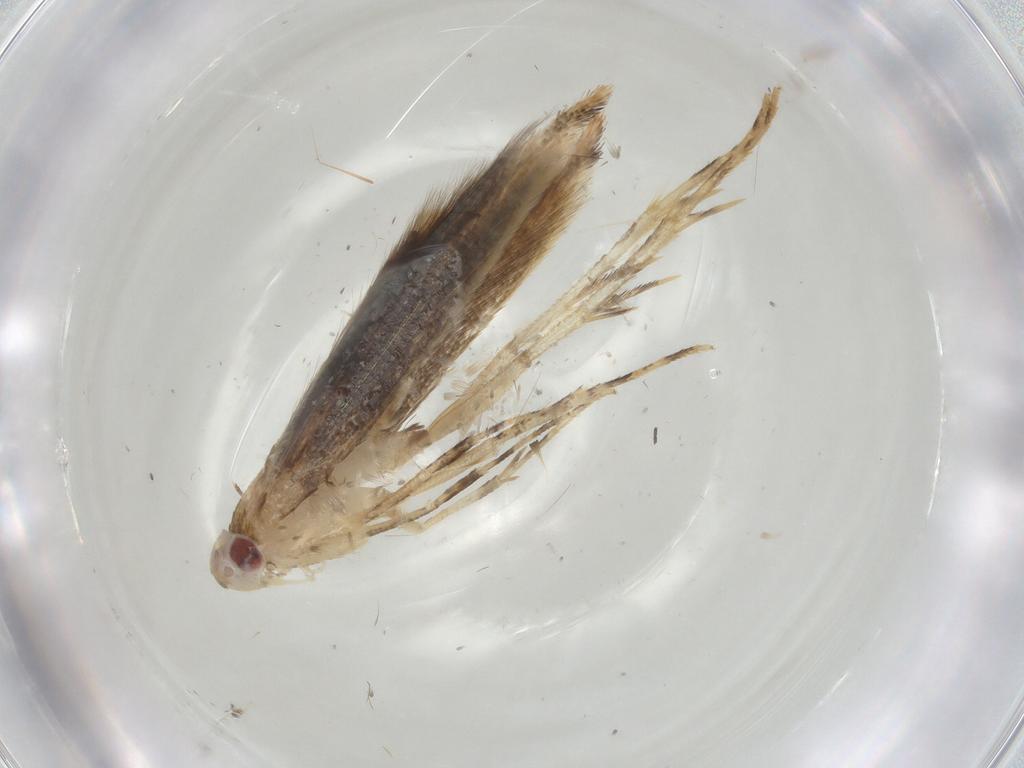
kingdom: Animalia
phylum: Arthropoda
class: Insecta
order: Lepidoptera
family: Cosmopterigidae
